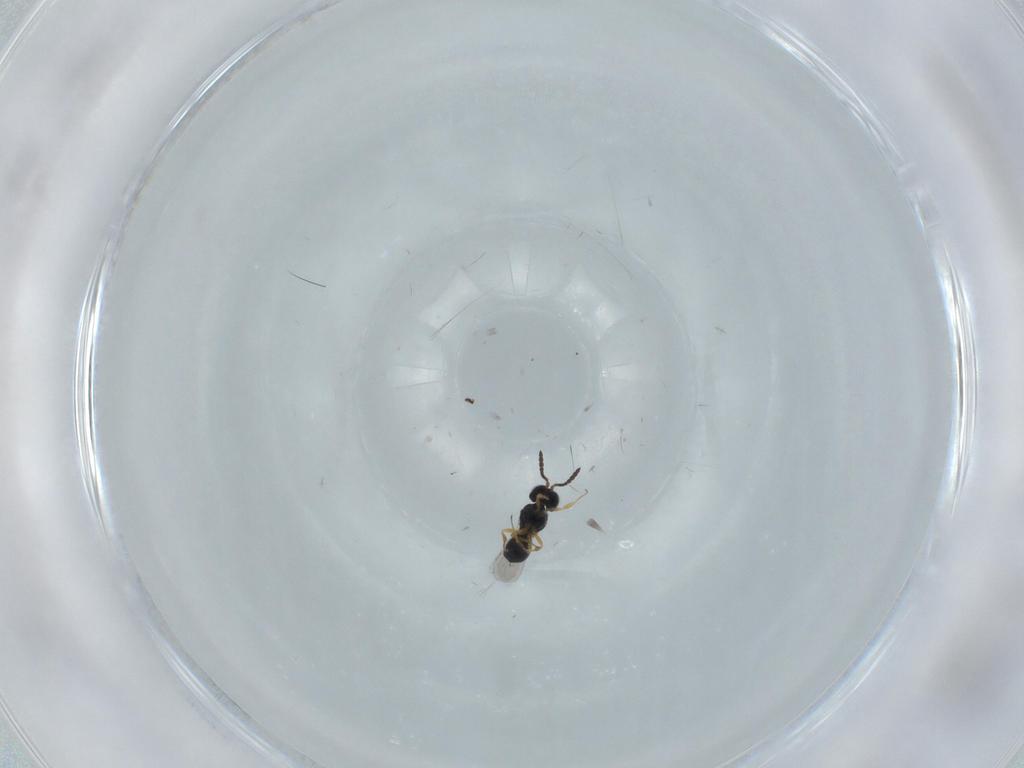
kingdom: Animalia
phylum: Arthropoda
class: Insecta
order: Hymenoptera
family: Scelionidae
